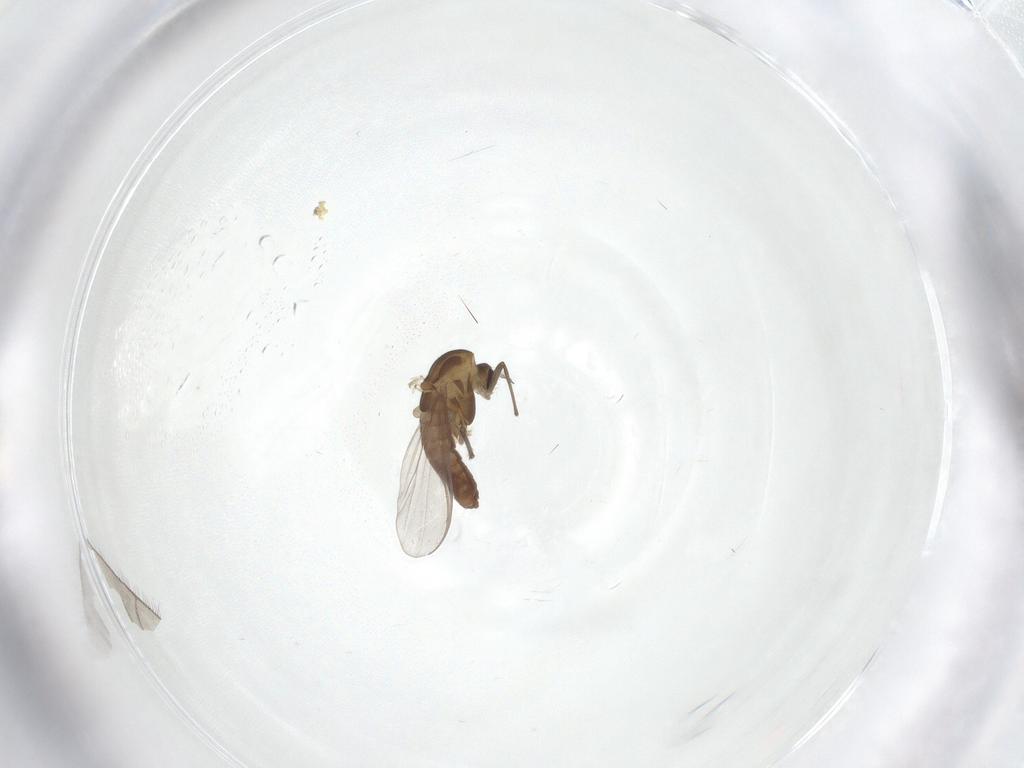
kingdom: Animalia
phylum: Arthropoda
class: Insecta
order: Diptera
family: Chironomidae
